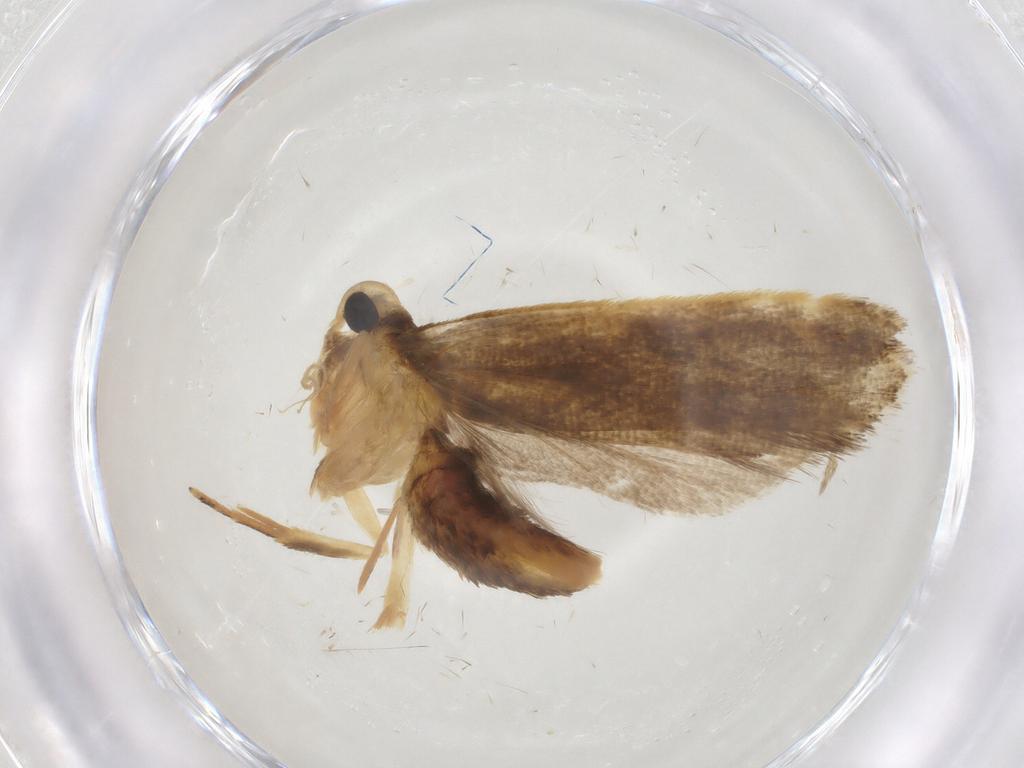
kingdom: Animalia
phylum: Arthropoda
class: Insecta
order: Lepidoptera
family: Gelechiidae
